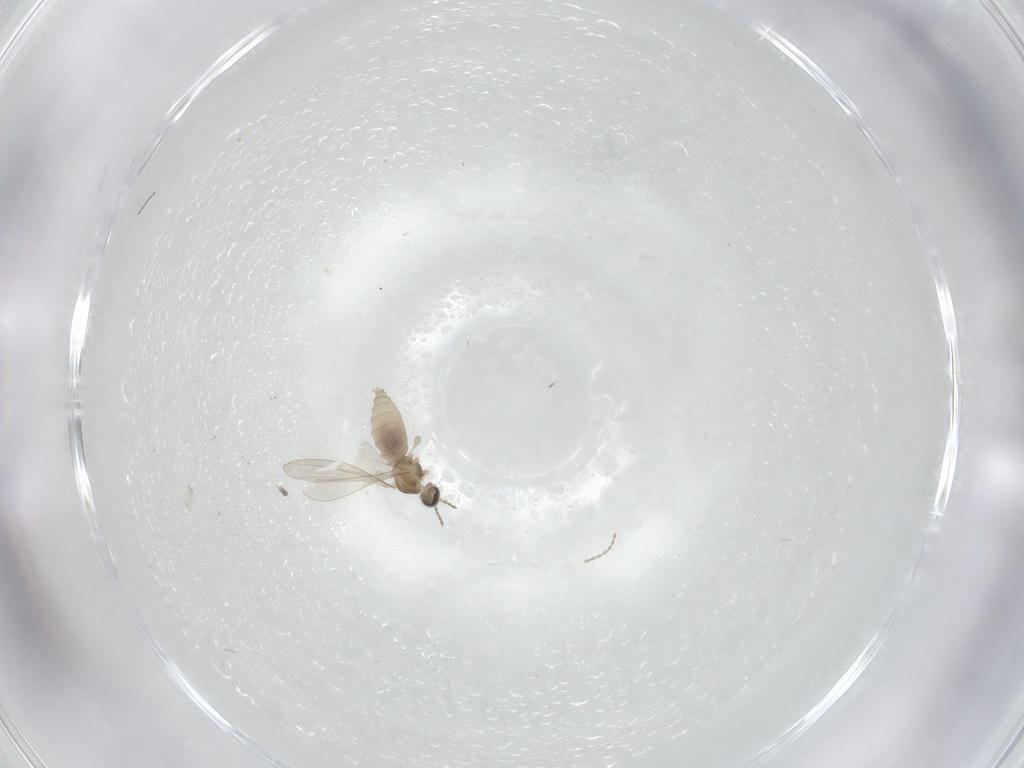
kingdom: Animalia
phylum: Arthropoda
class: Insecta
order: Diptera
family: Cecidomyiidae
